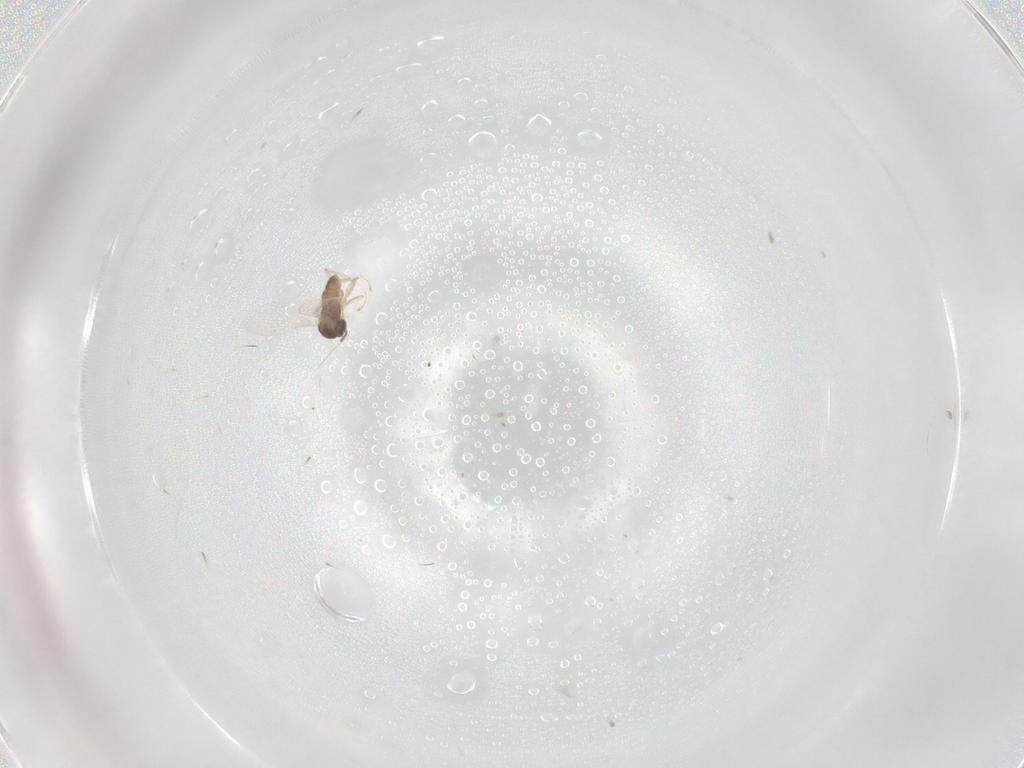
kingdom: Animalia
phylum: Arthropoda
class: Insecta
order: Diptera
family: Cecidomyiidae
